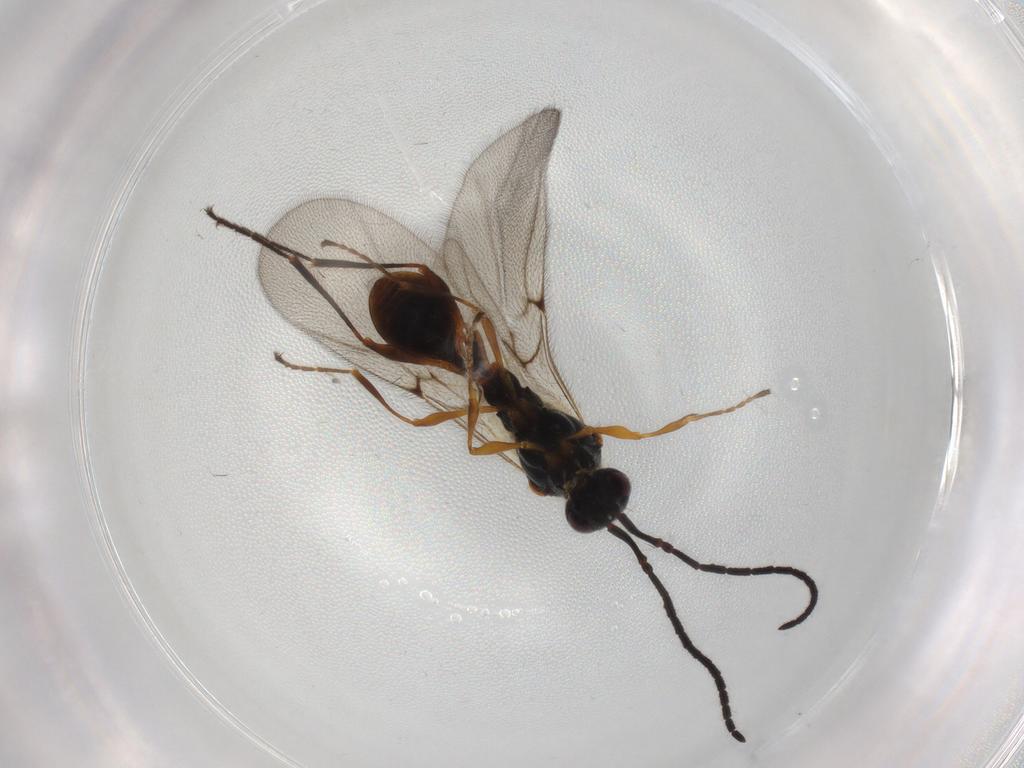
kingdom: Animalia
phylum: Arthropoda
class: Insecta
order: Hymenoptera
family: Diapriidae
